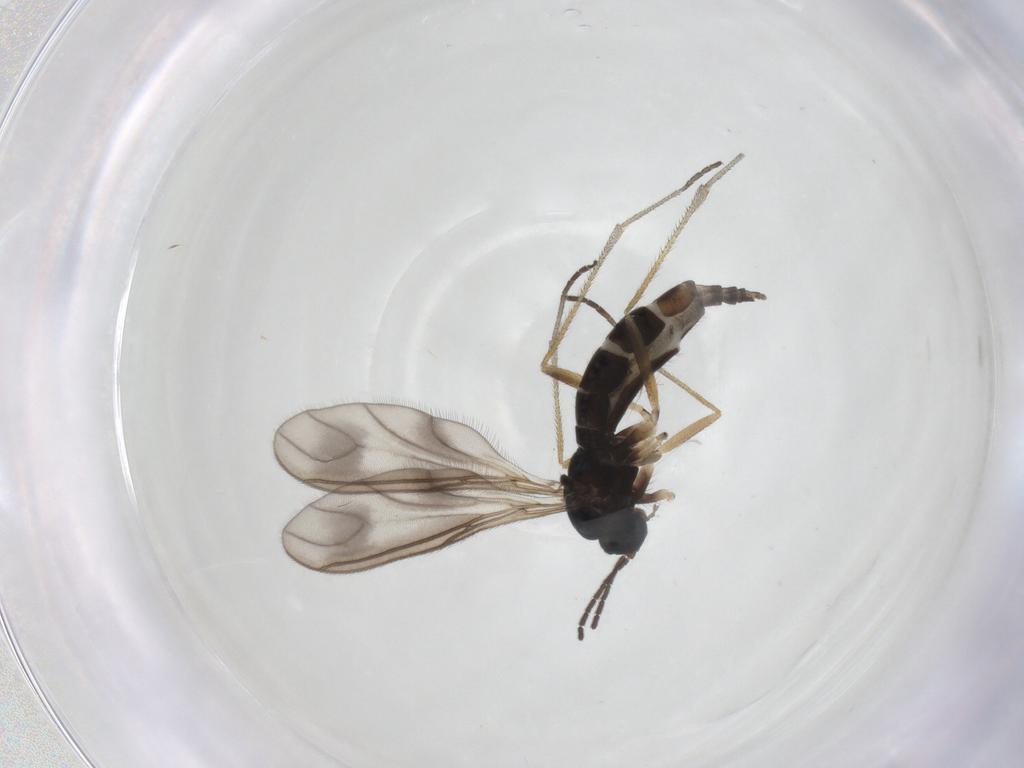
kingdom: Animalia
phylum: Arthropoda
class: Insecta
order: Diptera
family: Sciaridae
